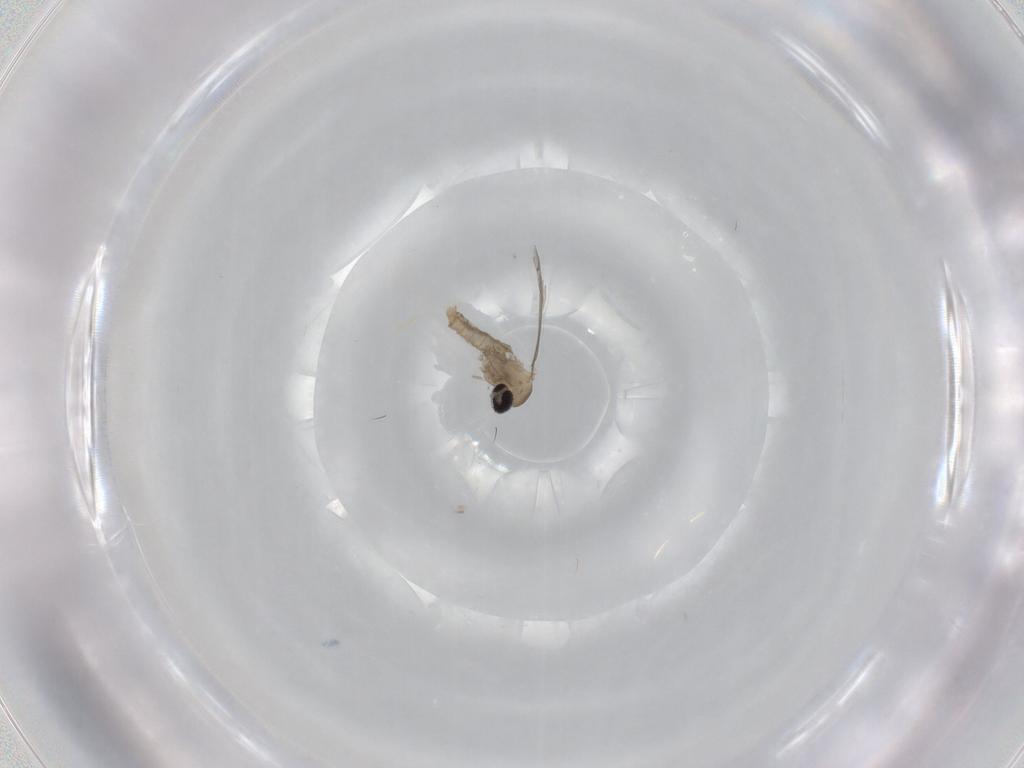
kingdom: Animalia
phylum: Arthropoda
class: Insecta
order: Diptera
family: Cecidomyiidae
